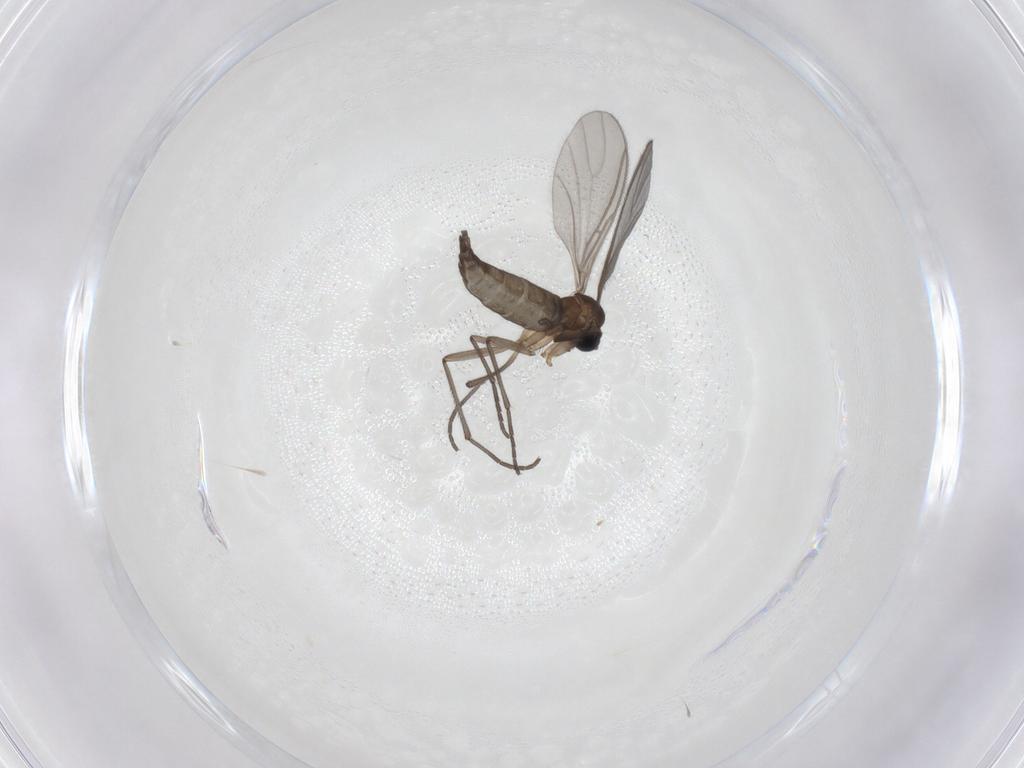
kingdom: Animalia
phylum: Arthropoda
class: Insecta
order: Diptera
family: Sciaridae
